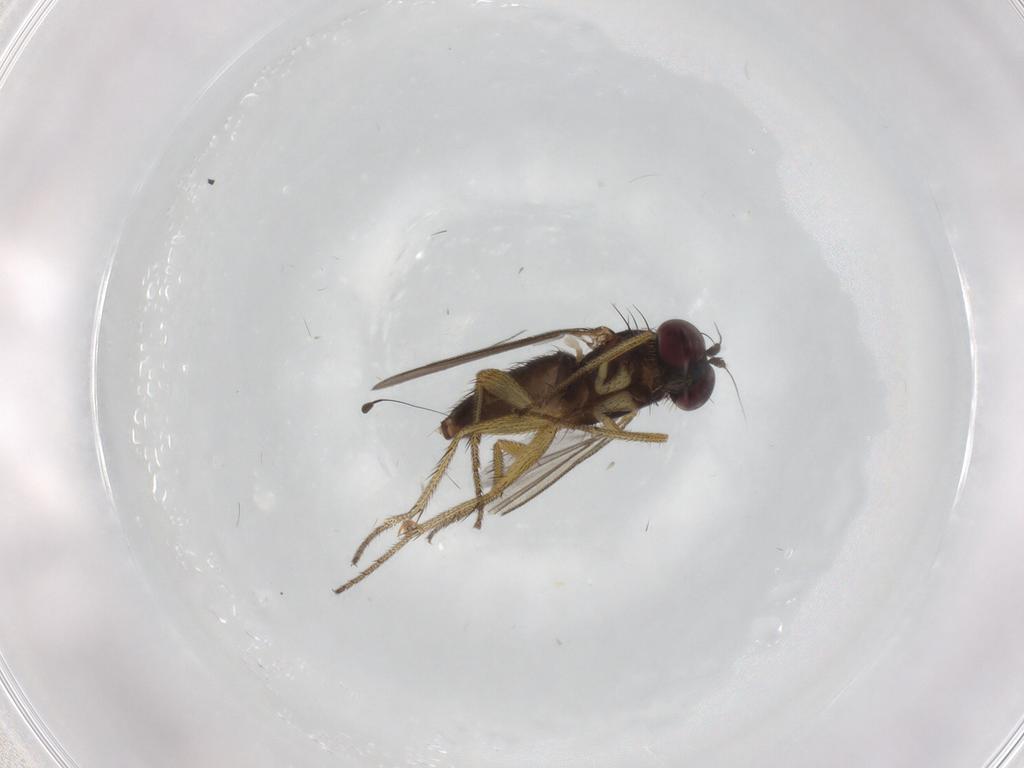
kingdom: Animalia
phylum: Arthropoda
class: Insecta
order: Diptera
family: Dolichopodidae
